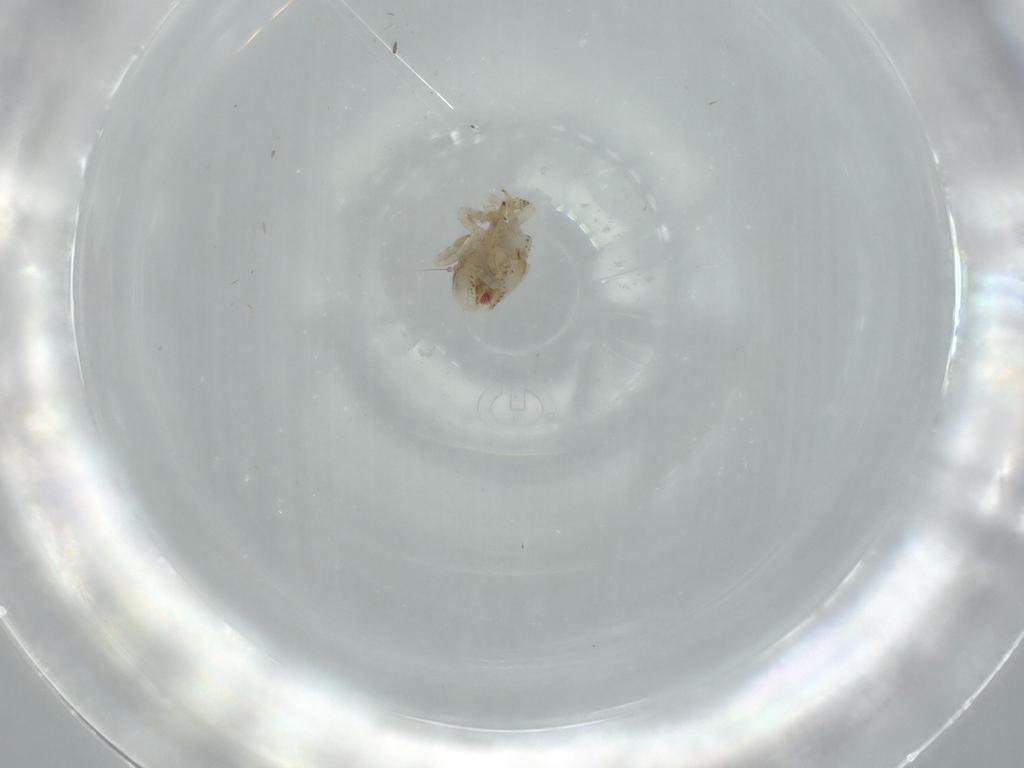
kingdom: Animalia
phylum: Arthropoda
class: Insecta
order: Hemiptera
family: Acanaloniidae
